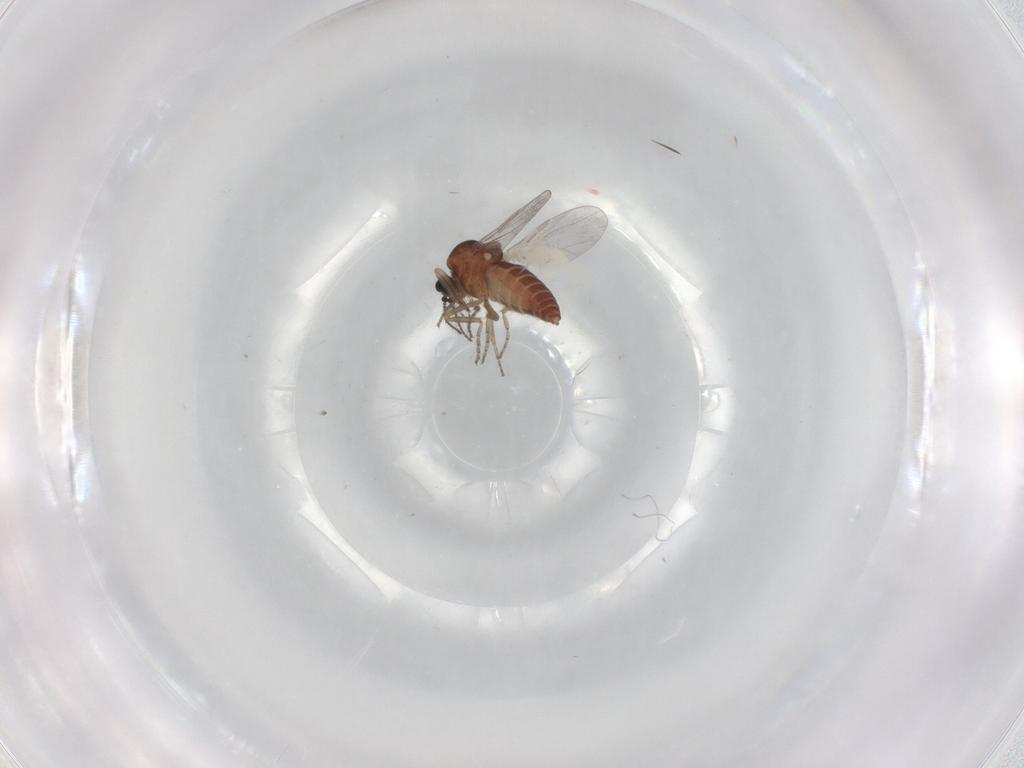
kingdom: Animalia
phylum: Arthropoda
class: Insecta
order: Diptera
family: Ceratopogonidae
